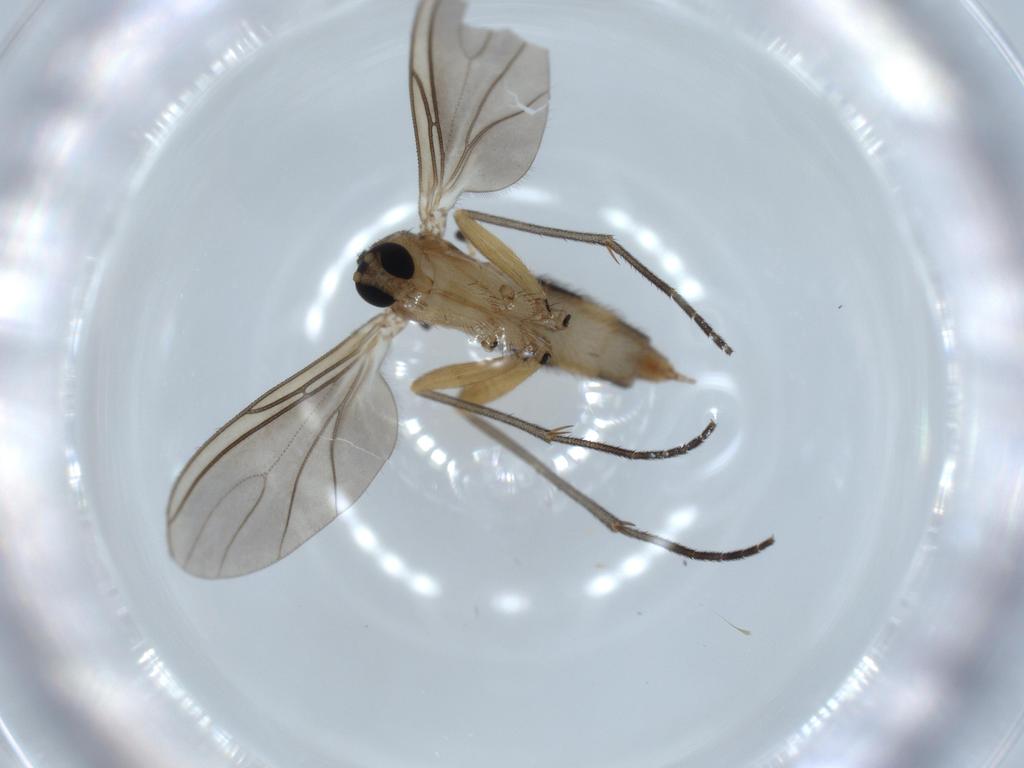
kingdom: Animalia
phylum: Arthropoda
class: Insecta
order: Diptera
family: Sciaridae
